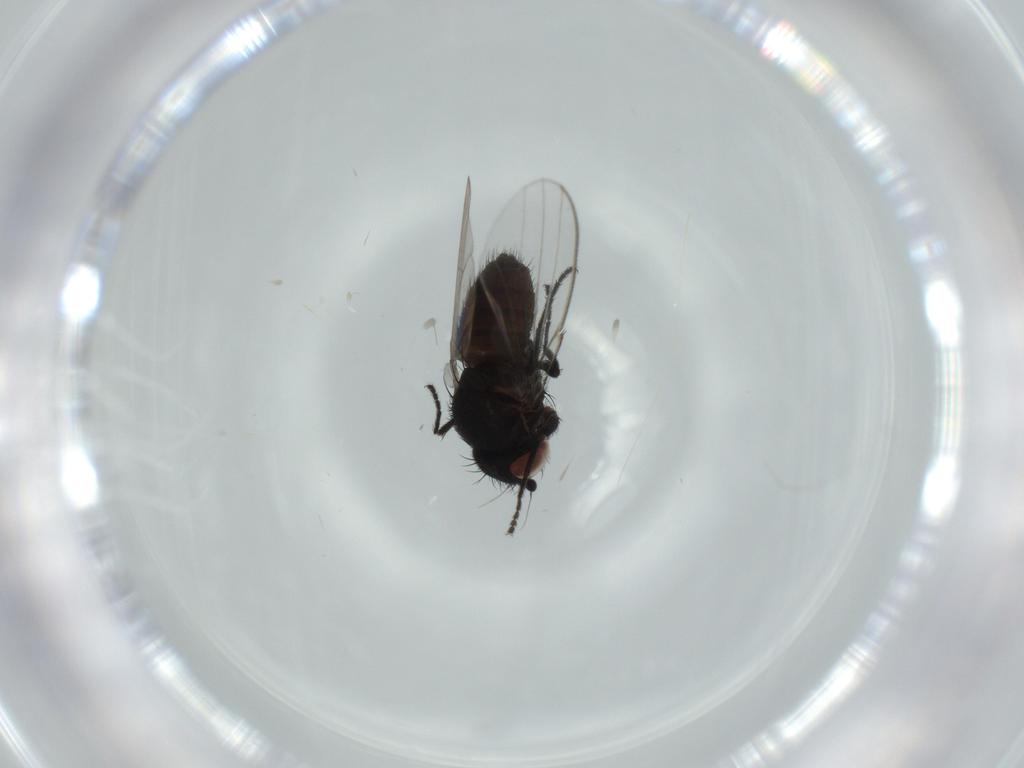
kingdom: Animalia
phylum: Arthropoda
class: Insecta
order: Diptera
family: Milichiidae
